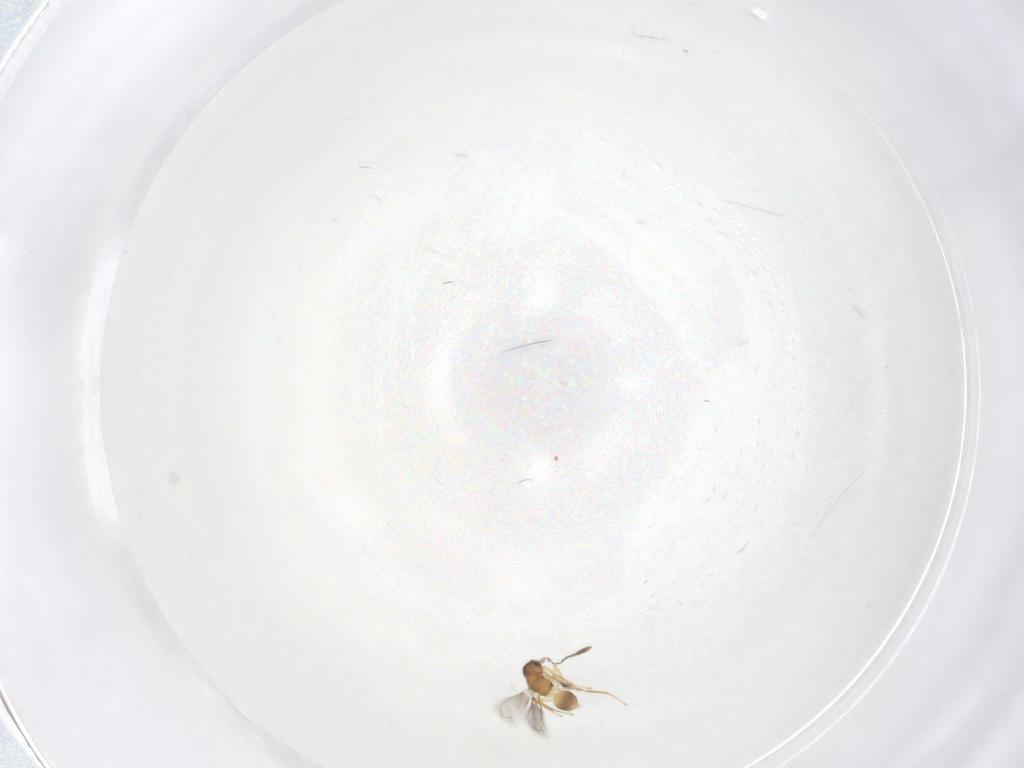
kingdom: Animalia
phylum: Arthropoda
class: Insecta
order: Hymenoptera
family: Mymaridae
